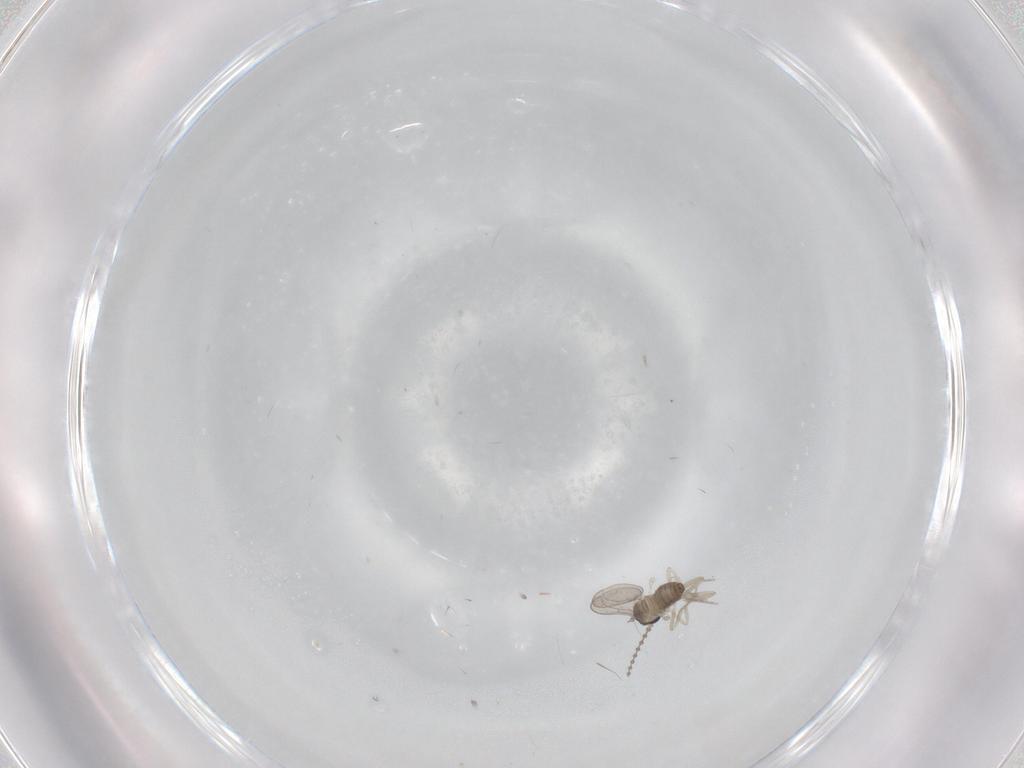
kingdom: Animalia
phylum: Arthropoda
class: Insecta
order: Diptera
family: Cecidomyiidae
